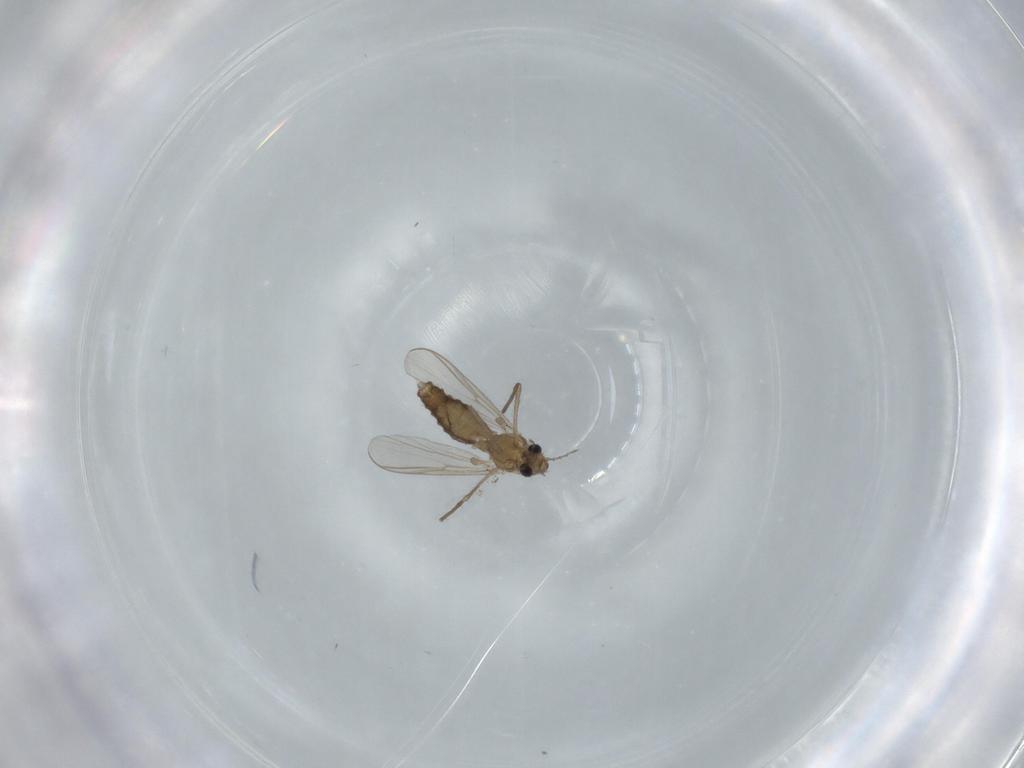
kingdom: Animalia
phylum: Arthropoda
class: Insecta
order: Diptera
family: Chironomidae
